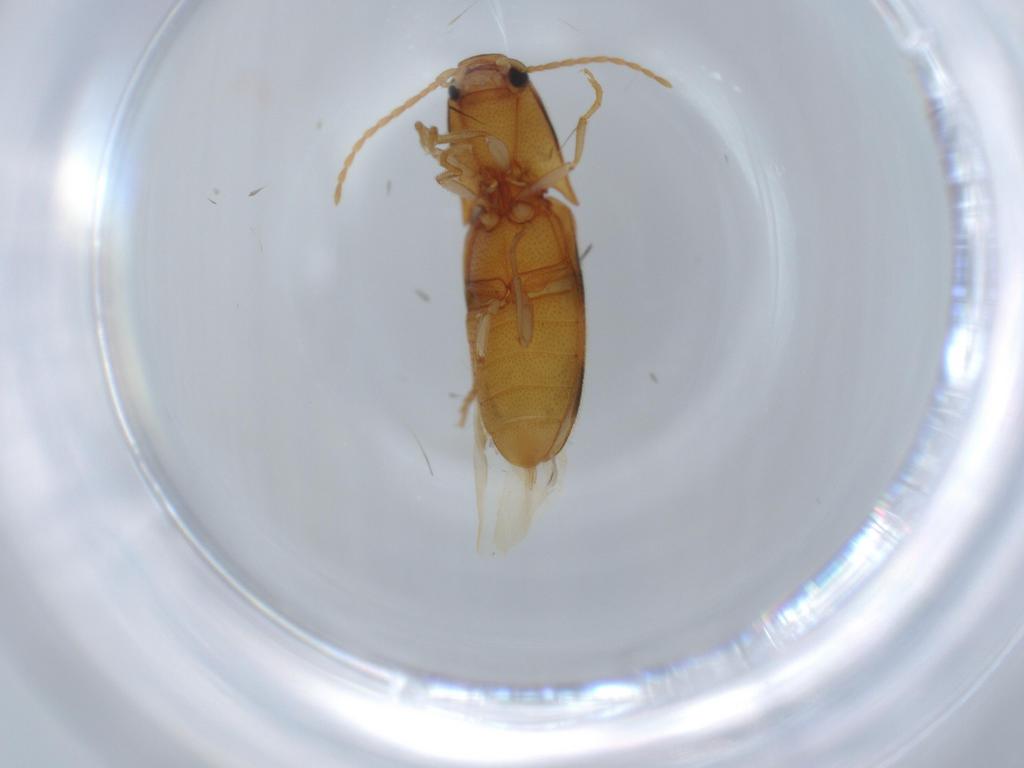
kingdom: Animalia
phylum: Arthropoda
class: Insecta
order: Coleoptera
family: Elateridae
